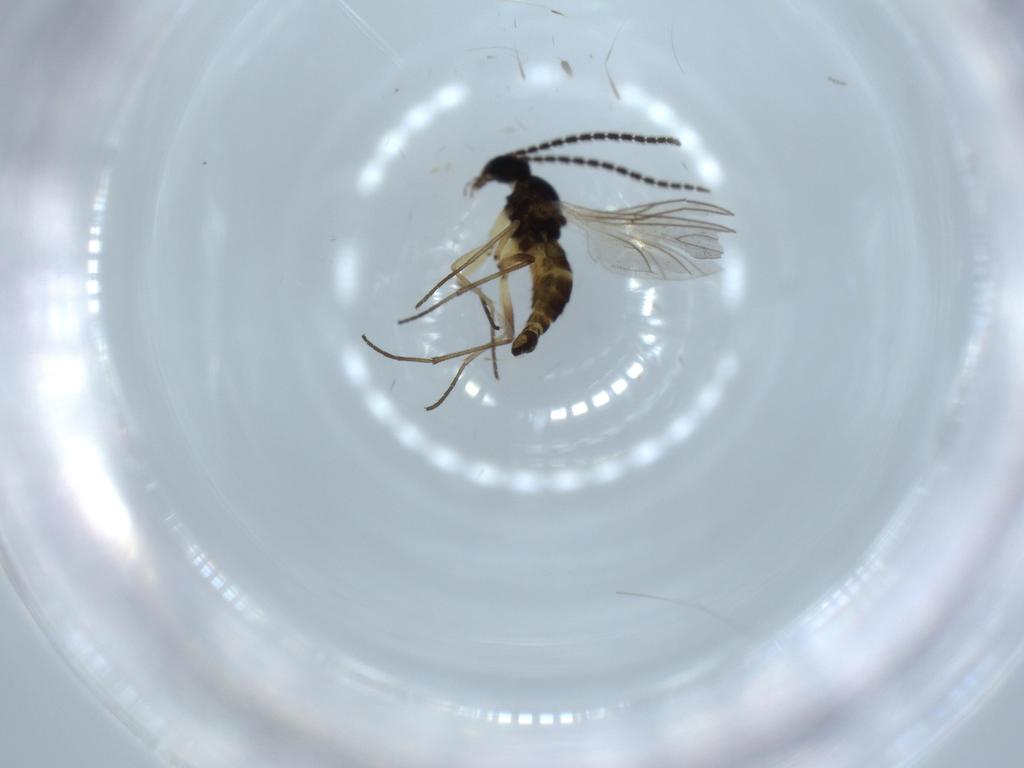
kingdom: Animalia
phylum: Arthropoda
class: Insecta
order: Diptera
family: Sciaridae
